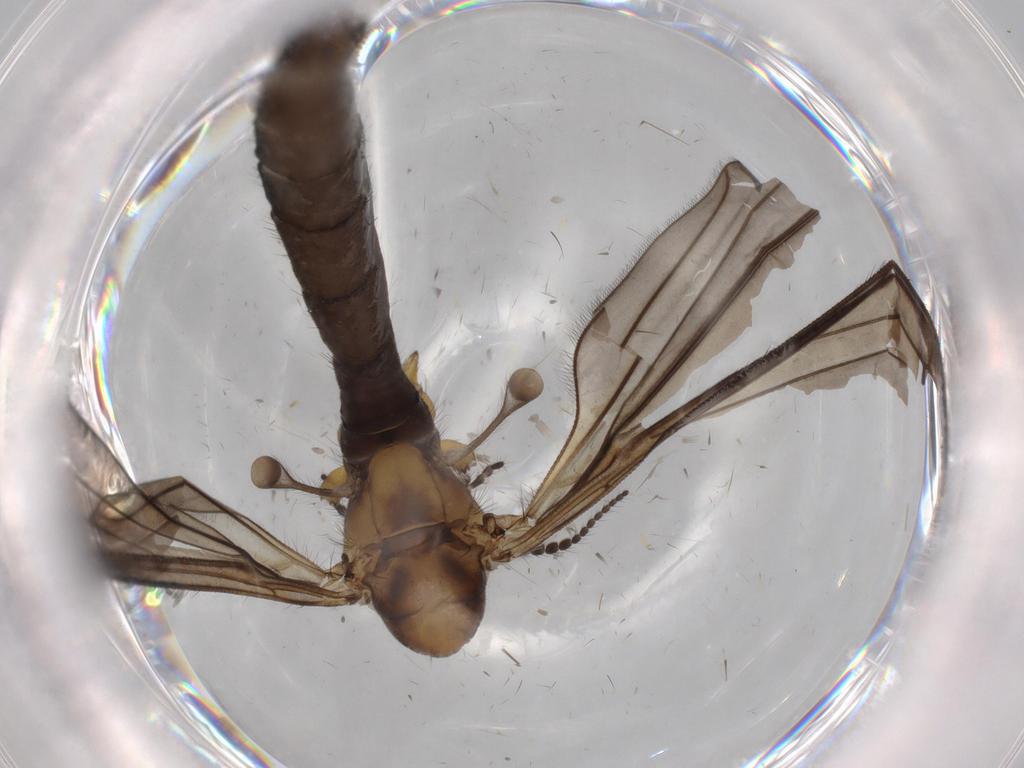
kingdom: Animalia
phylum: Arthropoda
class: Insecta
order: Diptera
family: Limoniidae
